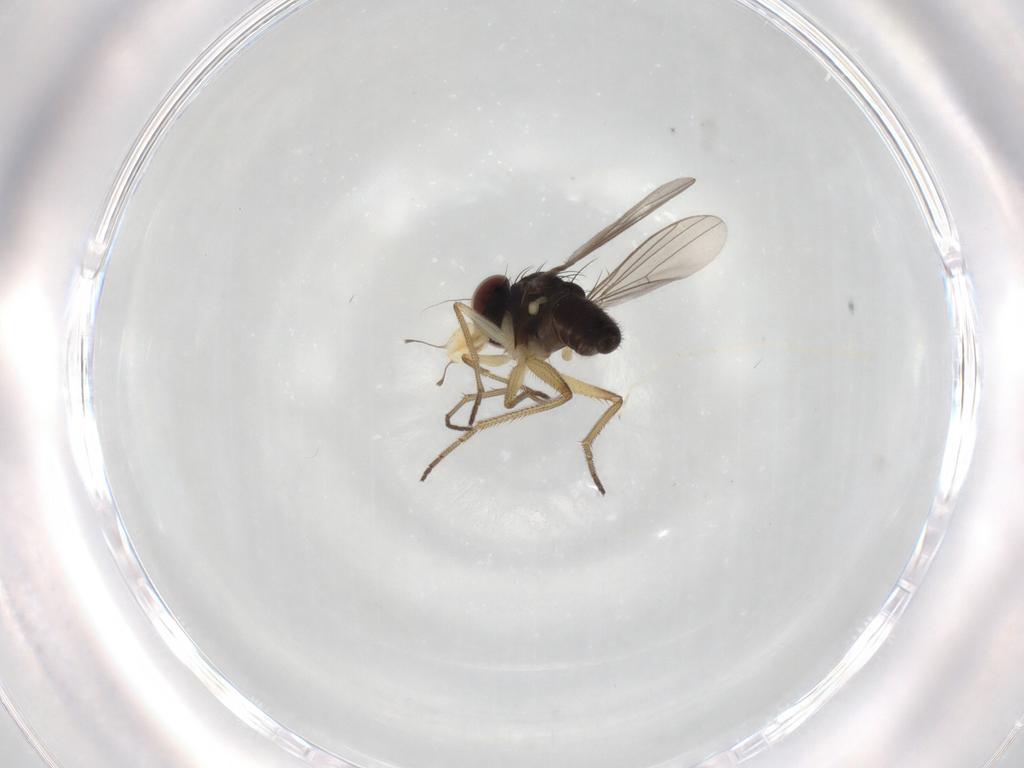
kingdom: Animalia
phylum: Arthropoda
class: Insecta
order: Diptera
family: Dolichopodidae
